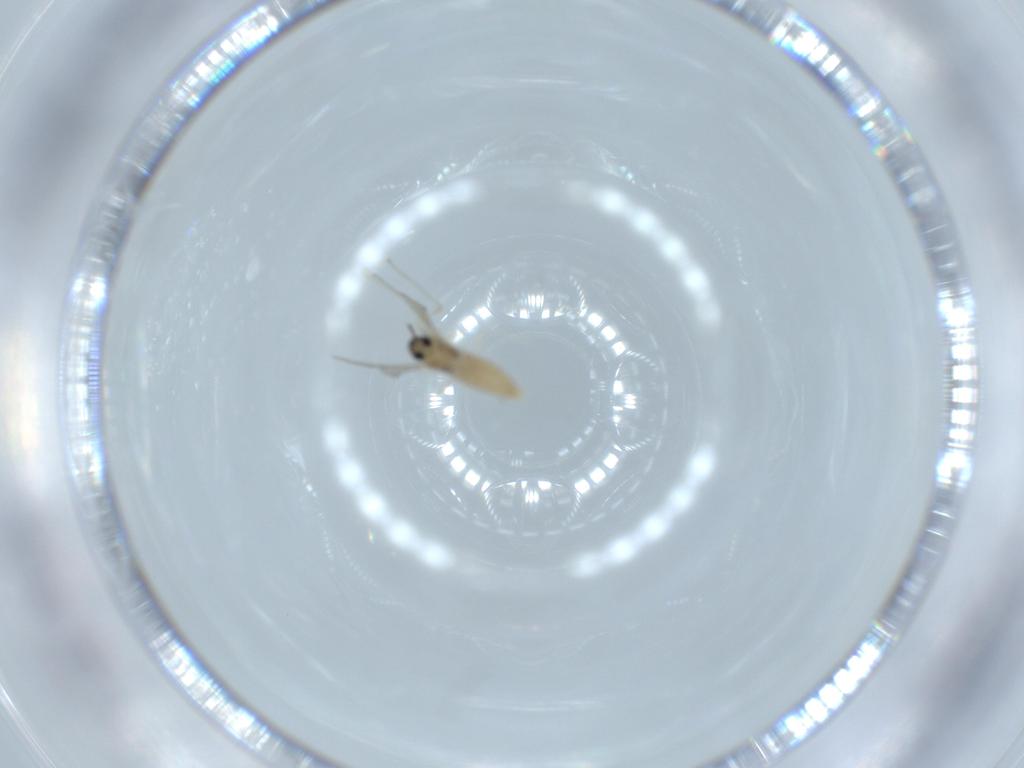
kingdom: Animalia
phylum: Arthropoda
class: Insecta
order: Diptera
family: Cecidomyiidae
